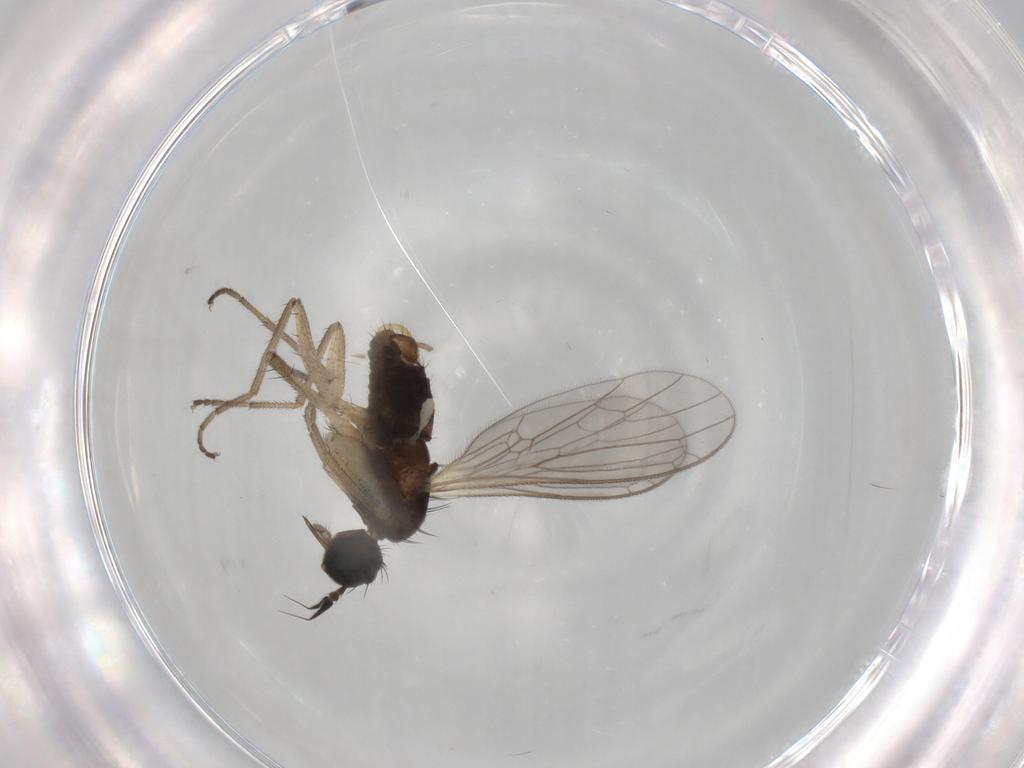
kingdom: Animalia
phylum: Arthropoda
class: Insecta
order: Diptera
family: Empididae
